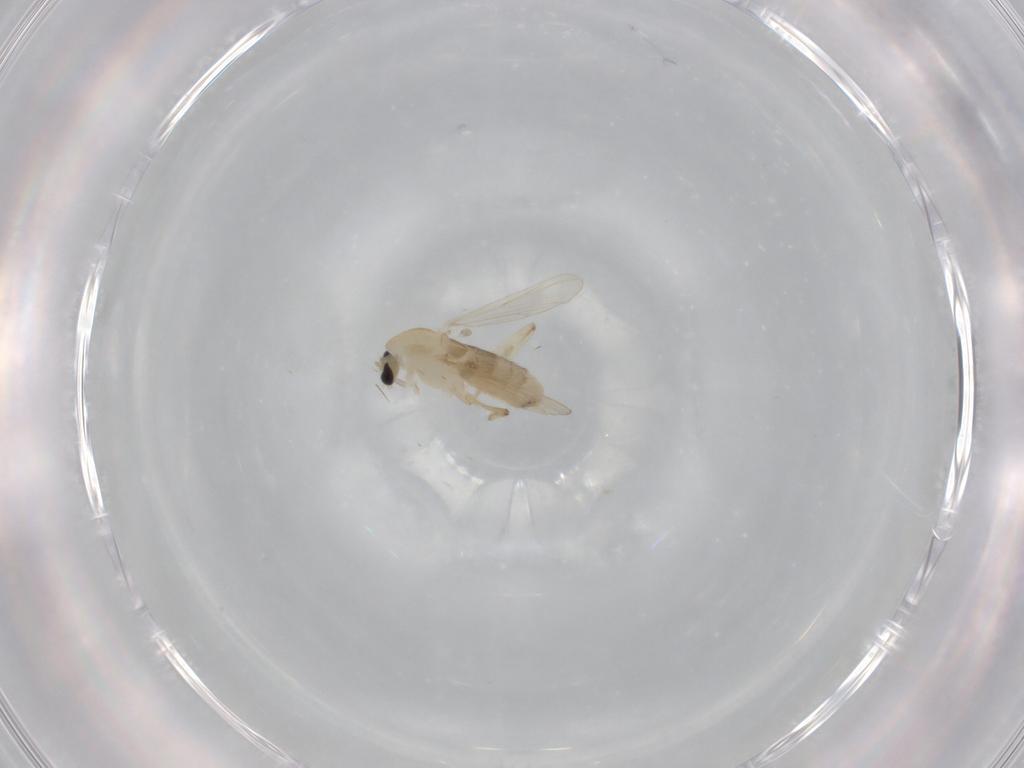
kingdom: Animalia
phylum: Arthropoda
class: Insecta
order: Diptera
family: Chironomidae
